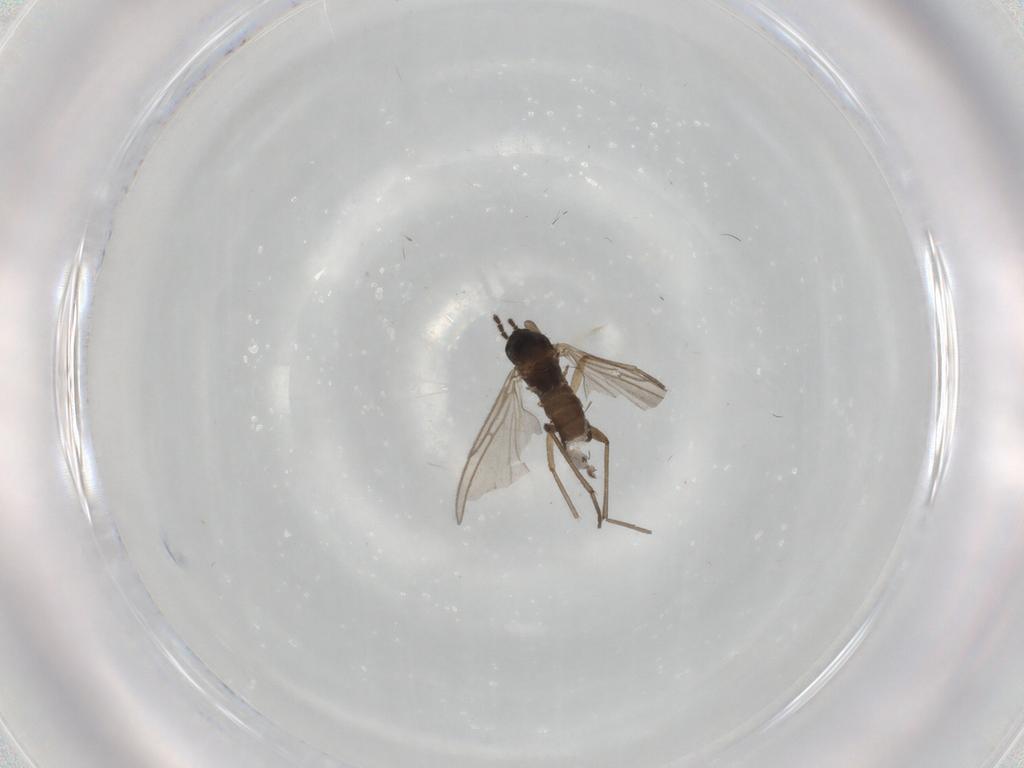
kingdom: Animalia
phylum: Arthropoda
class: Insecta
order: Diptera
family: Sciaridae
